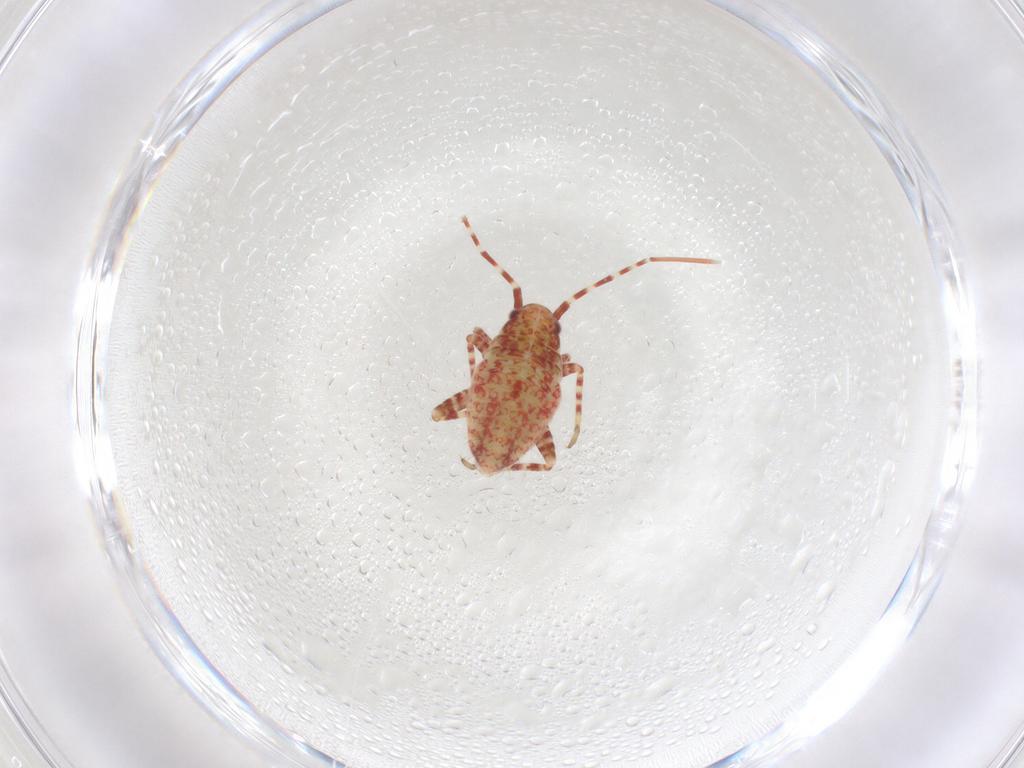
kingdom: Animalia
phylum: Arthropoda
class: Insecta
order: Hemiptera
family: Miridae
